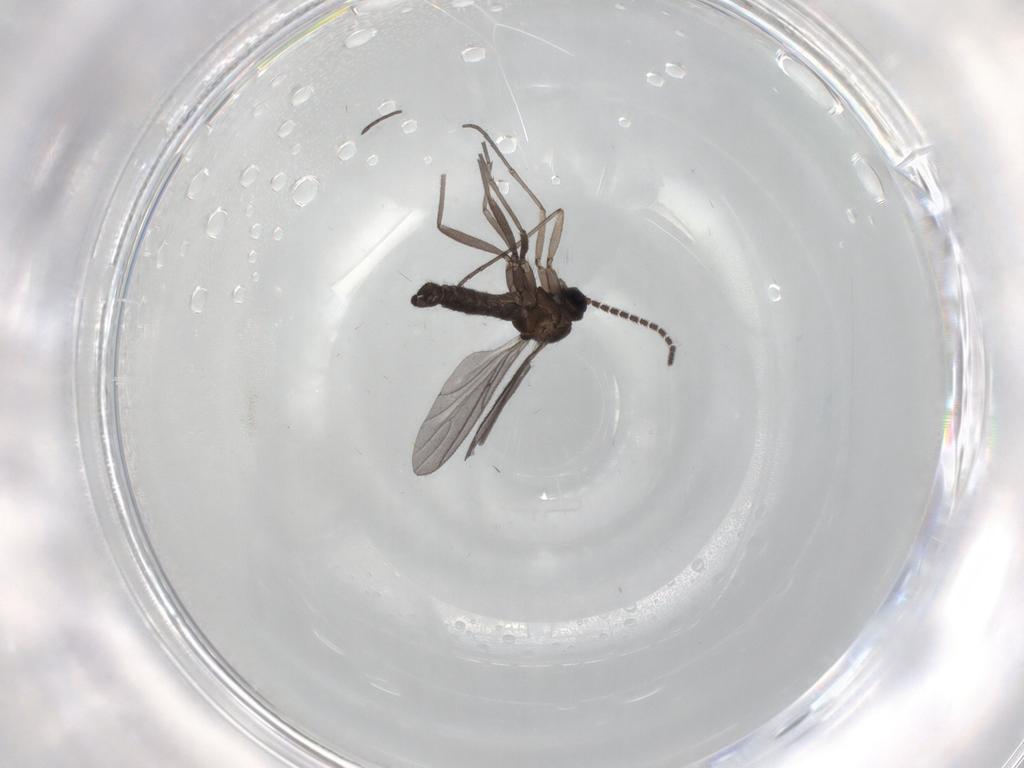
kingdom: Animalia
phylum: Arthropoda
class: Insecta
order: Diptera
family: Sciaridae
